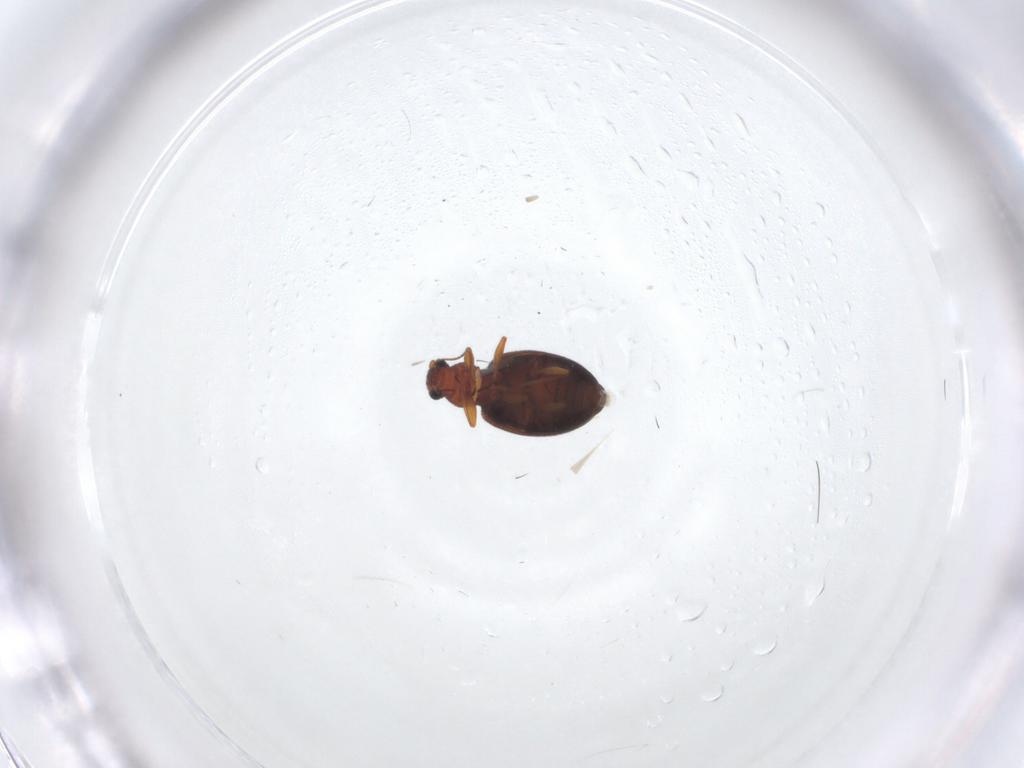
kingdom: Animalia
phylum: Arthropoda
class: Insecta
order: Coleoptera
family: Latridiidae
